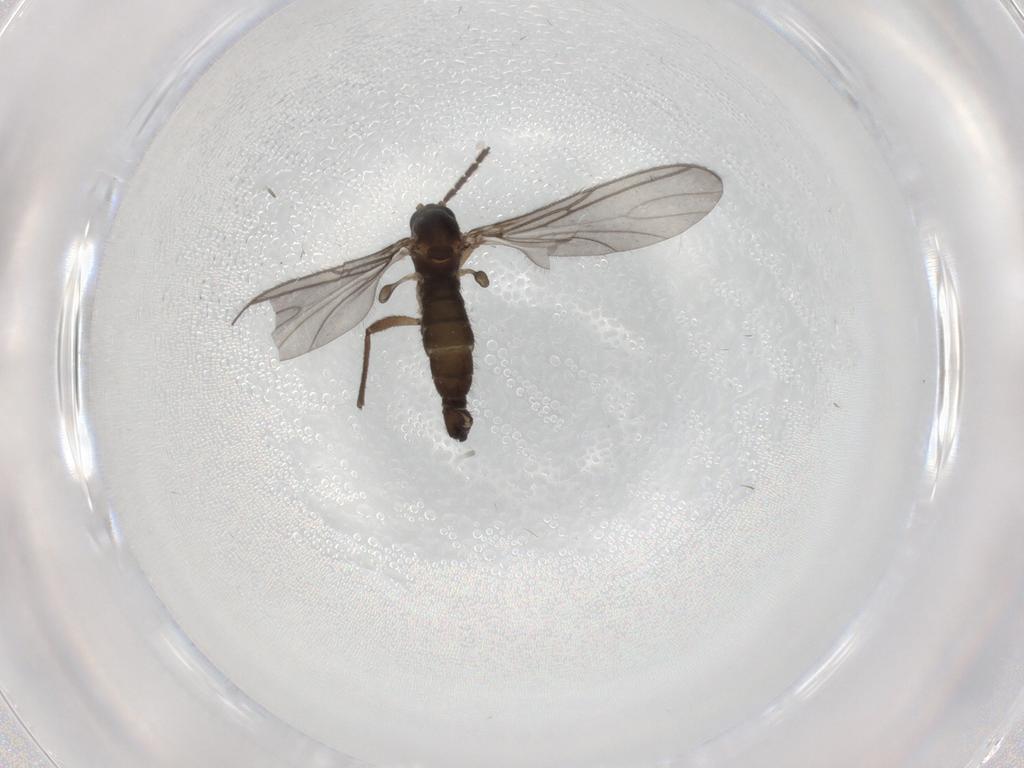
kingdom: Animalia
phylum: Arthropoda
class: Insecta
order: Diptera
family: Sciaridae
